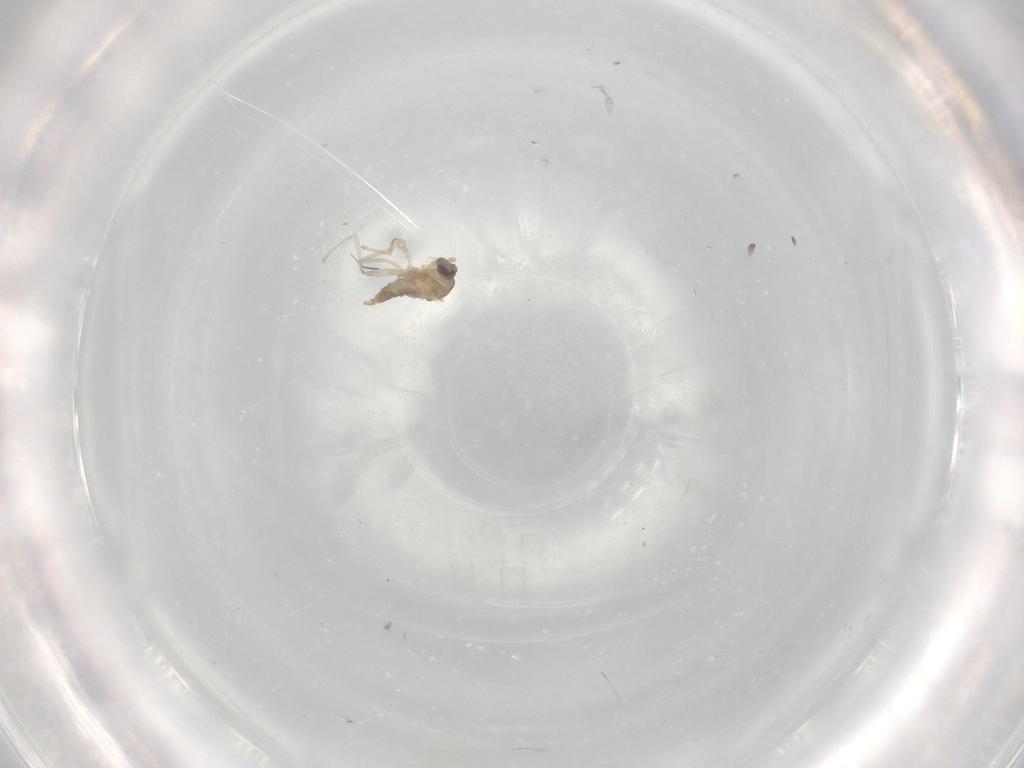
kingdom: Animalia
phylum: Arthropoda
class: Insecta
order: Diptera
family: Cecidomyiidae
